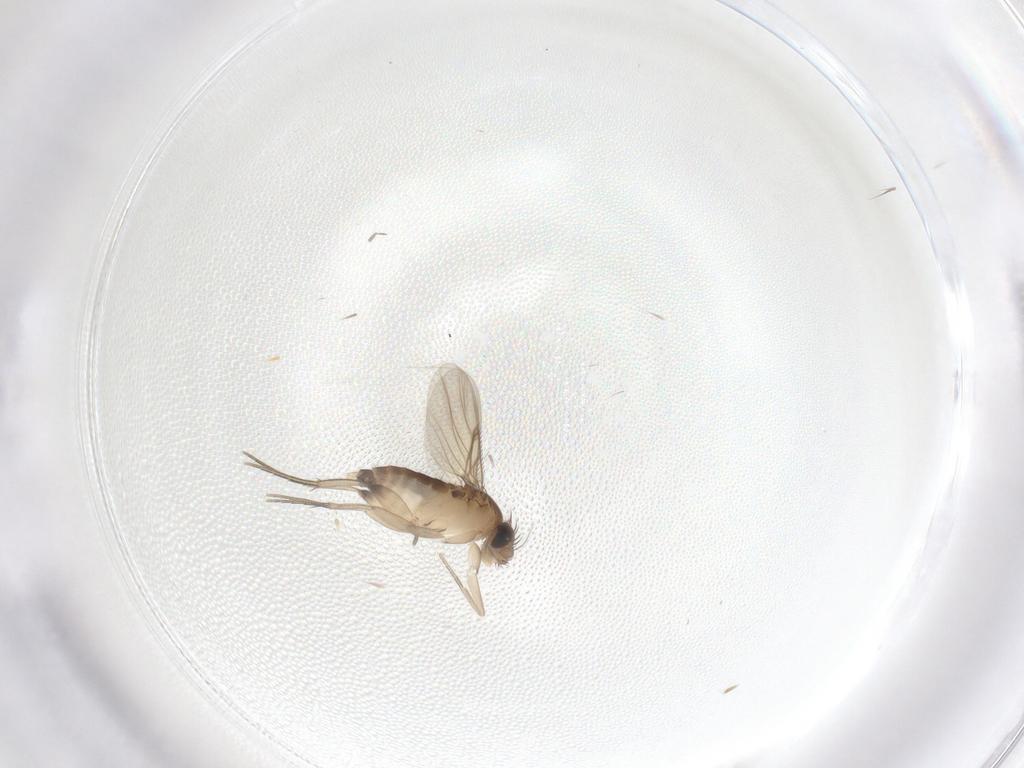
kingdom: Animalia
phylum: Arthropoda
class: Insecta
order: Diptera
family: Phoridae
